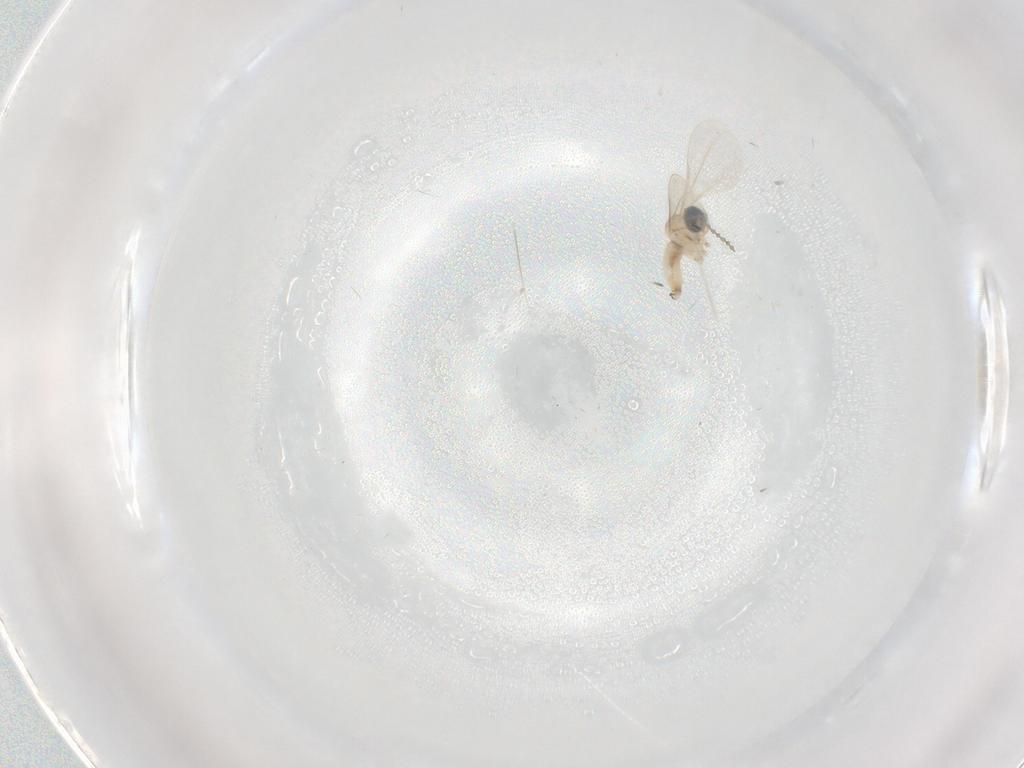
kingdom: Animalia
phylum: Arthropoda
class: Insecta
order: Diptera
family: Cecidomyiidae
